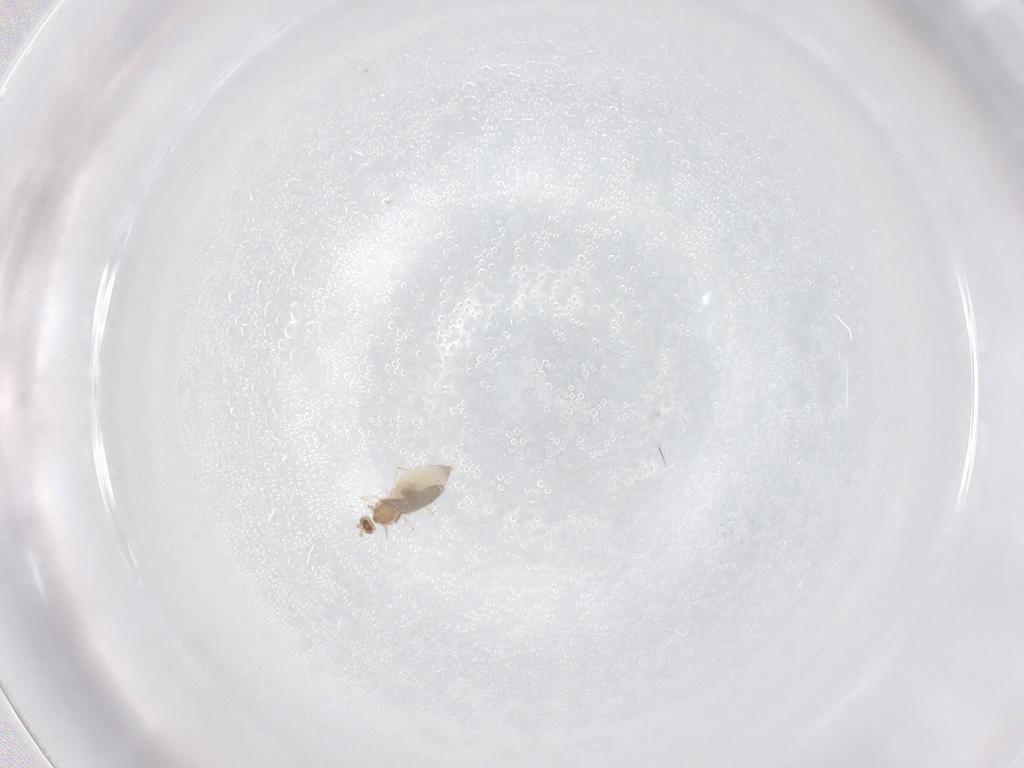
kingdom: Animalia
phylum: Arthropoda
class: Insecta
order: Diptera
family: Cecidomyiidae
